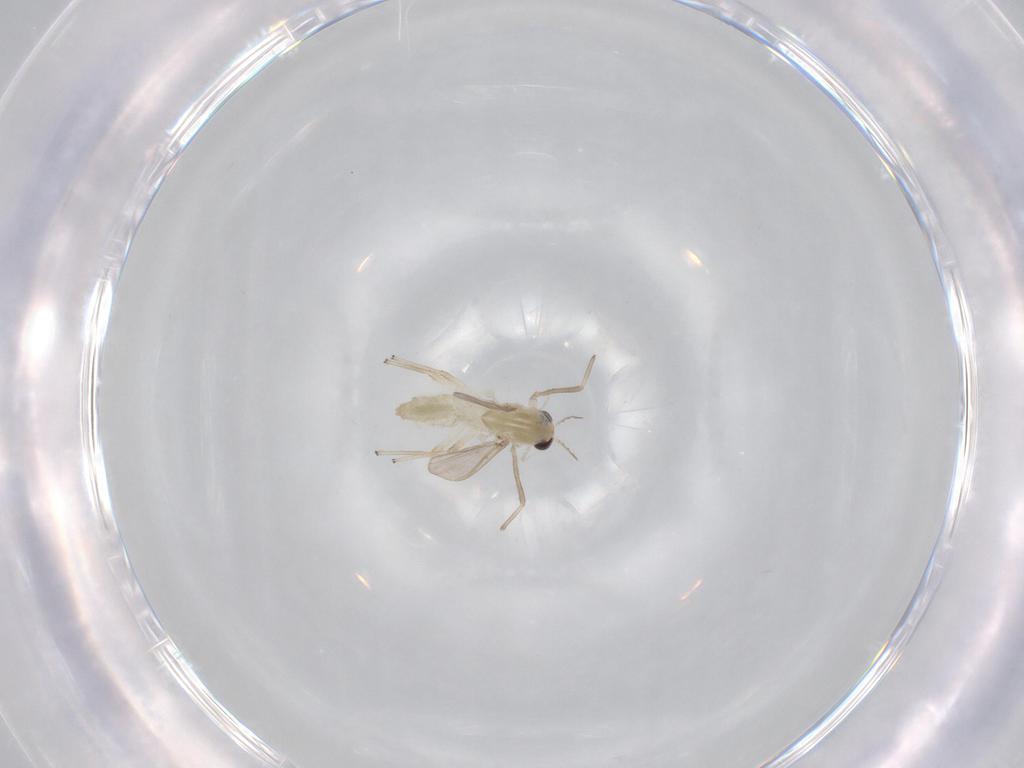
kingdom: Animalia
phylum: Arthropoda
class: Insecta
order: Diptera
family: Chironomidae
